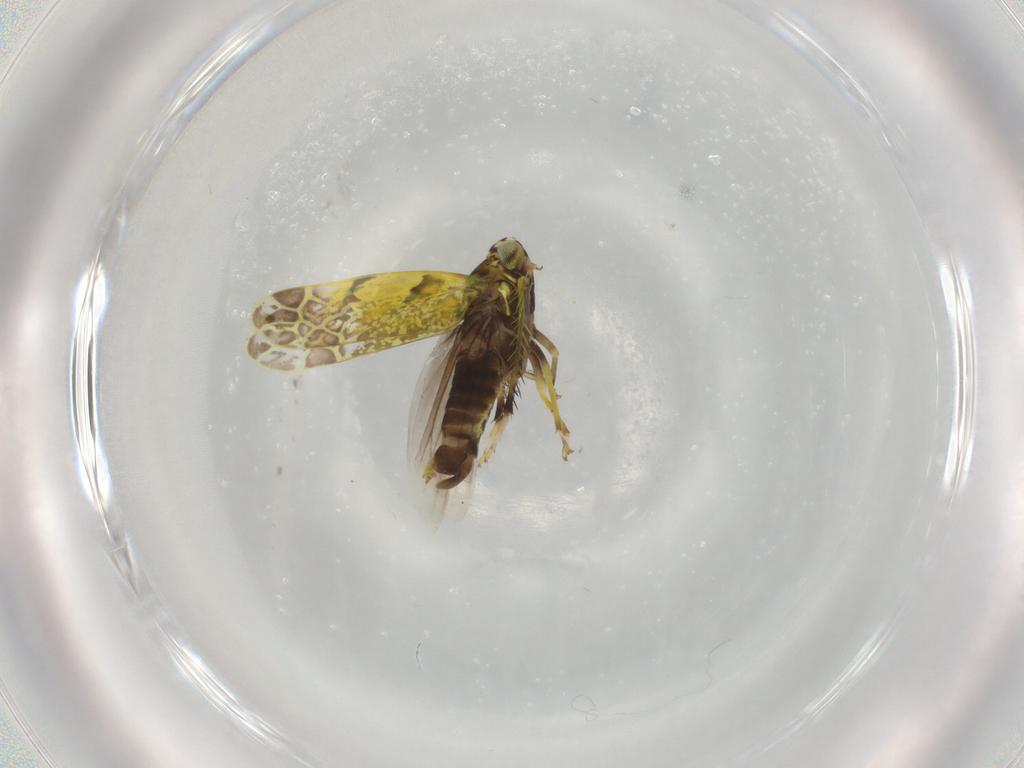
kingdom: Animalia
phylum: Arthropoda
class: Insecta
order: Hemiptera
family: Cicadellidae
